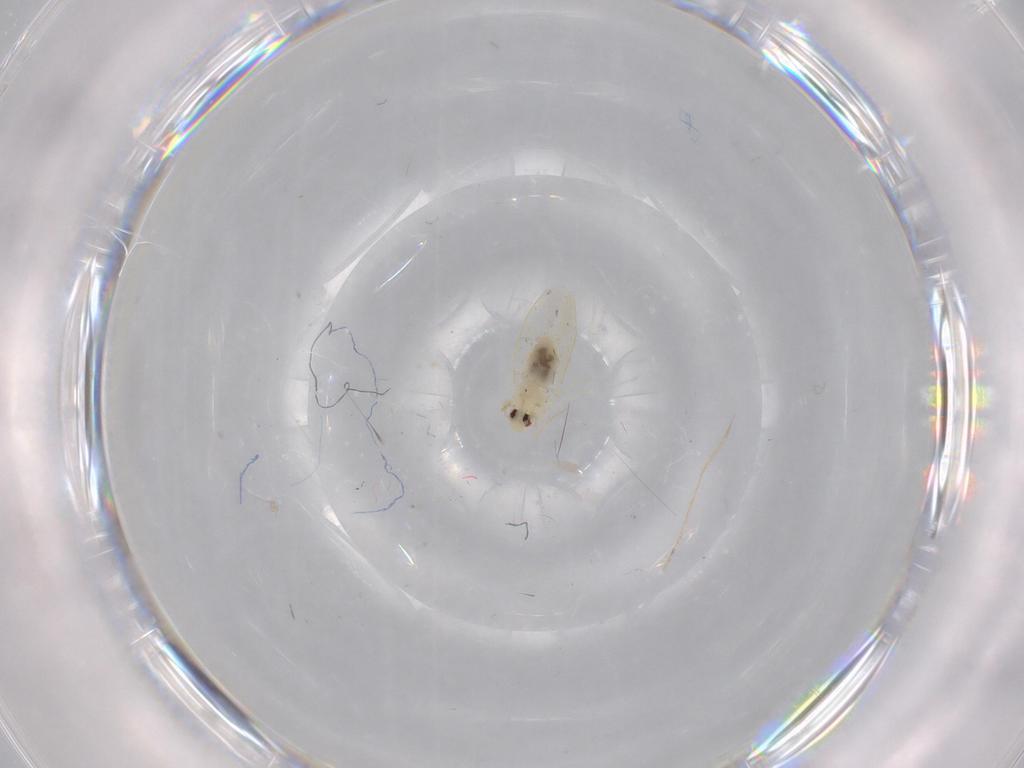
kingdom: Animalia
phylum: Arthropoda
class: Insecta
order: Hemiptera
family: Aleyrodidae
